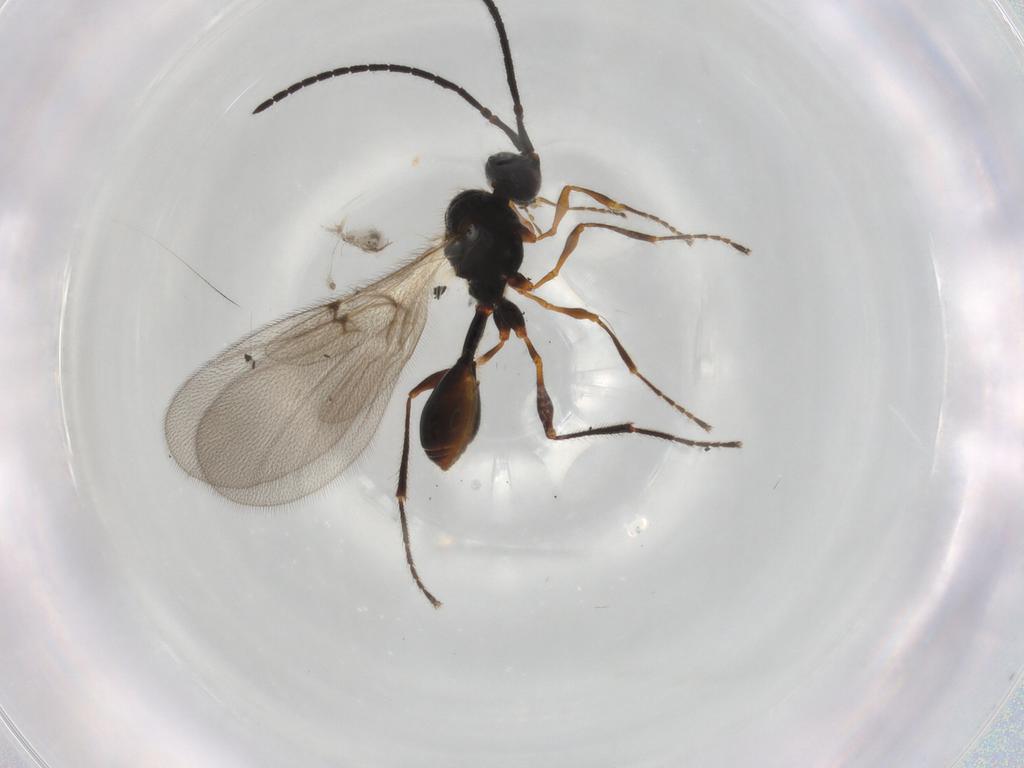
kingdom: Animalia
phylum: Arthropoda
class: Insecta
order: Hymenoptera
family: Diapriidae
